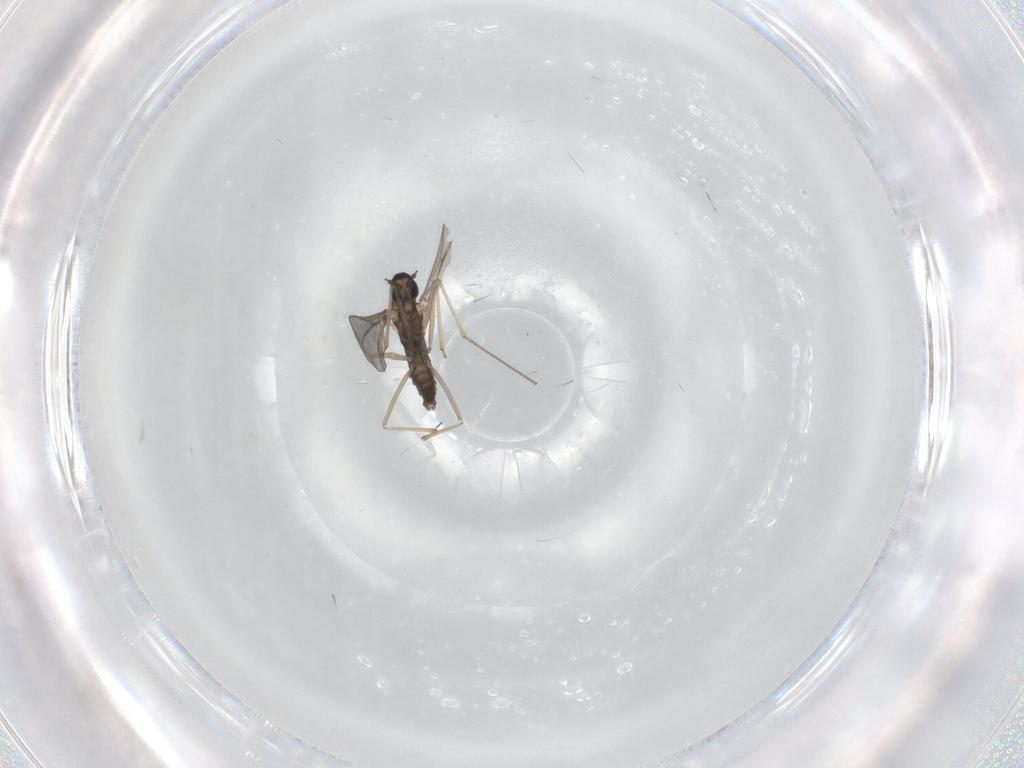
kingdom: Animalia
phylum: Arthropoda
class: Insecta
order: Diptera
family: Cecidomyiidae
